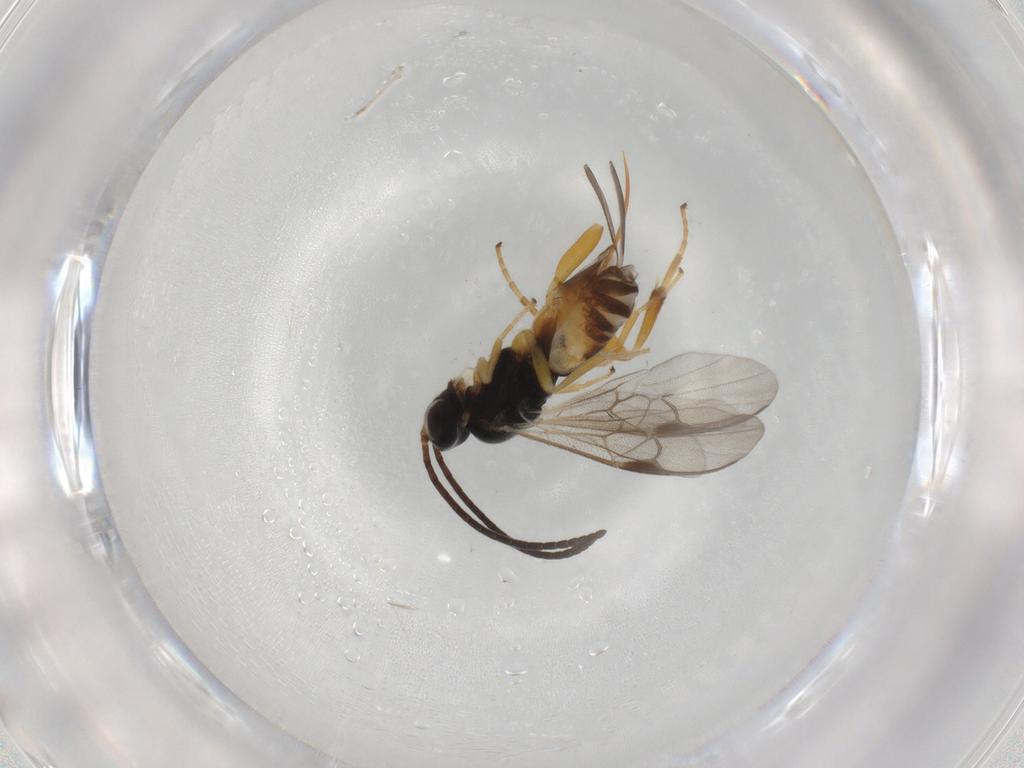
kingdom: Animalia
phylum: Arthropoda
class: Insecta
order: Hymenoptera
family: Braconidae
